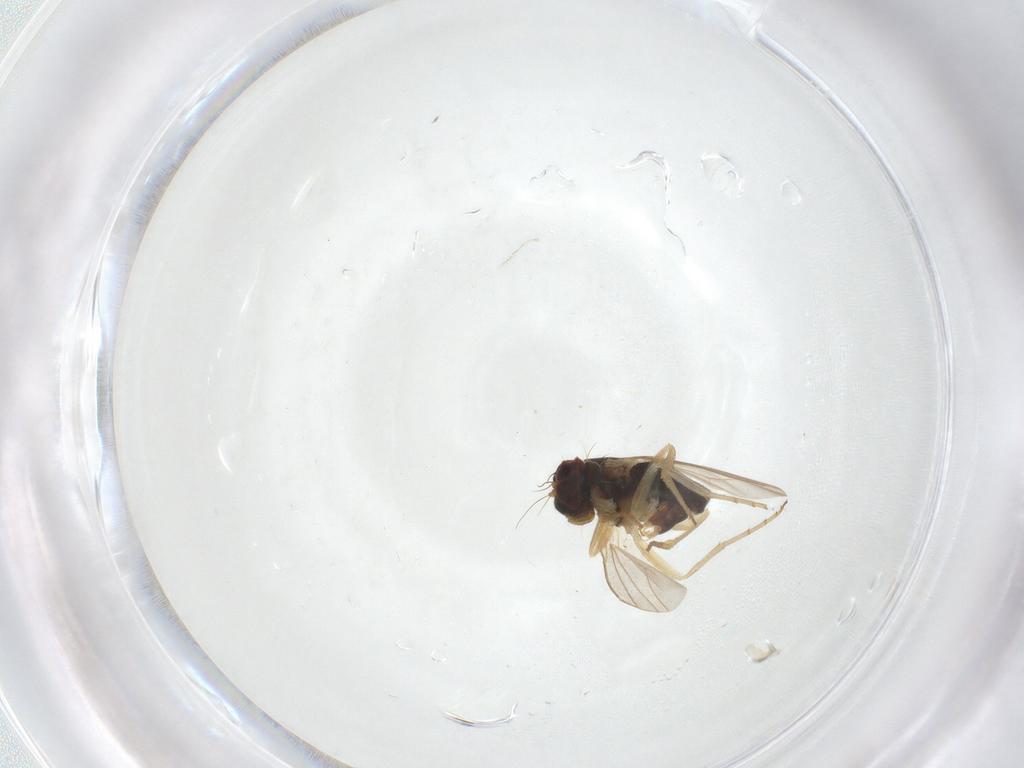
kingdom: Animalia
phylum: Arthropoda
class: Insecta
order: Diptera
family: Dolichopodidae
